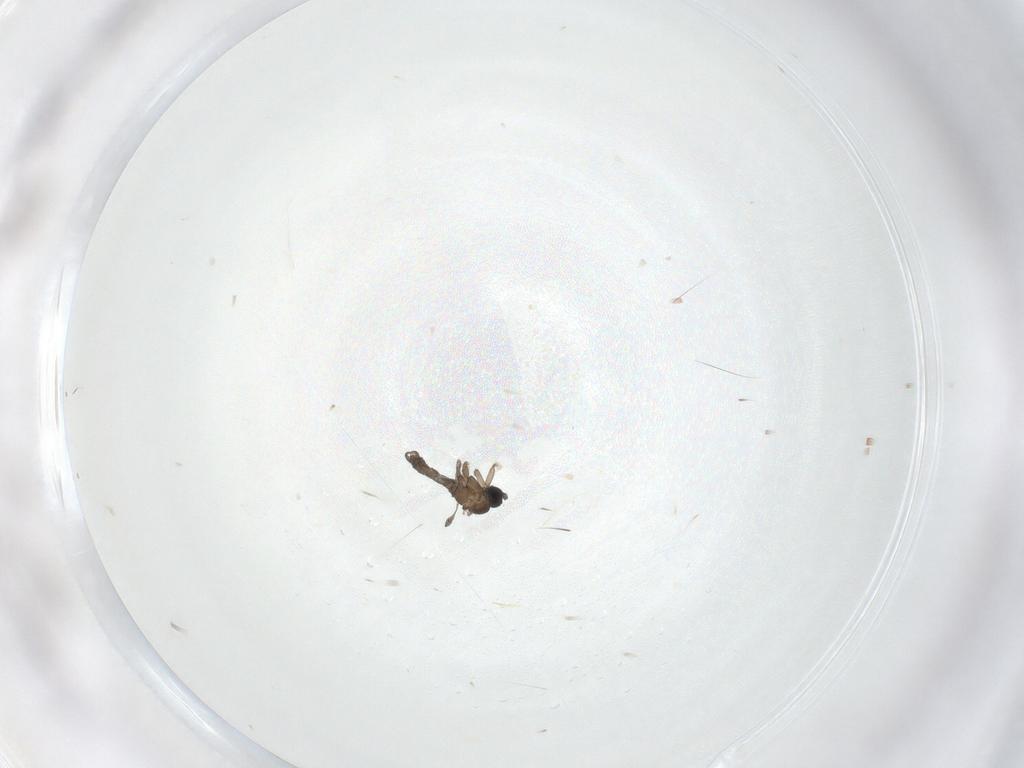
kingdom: Animalia
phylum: Arthropoda
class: Insecta
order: Diptera
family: Sciaridae
